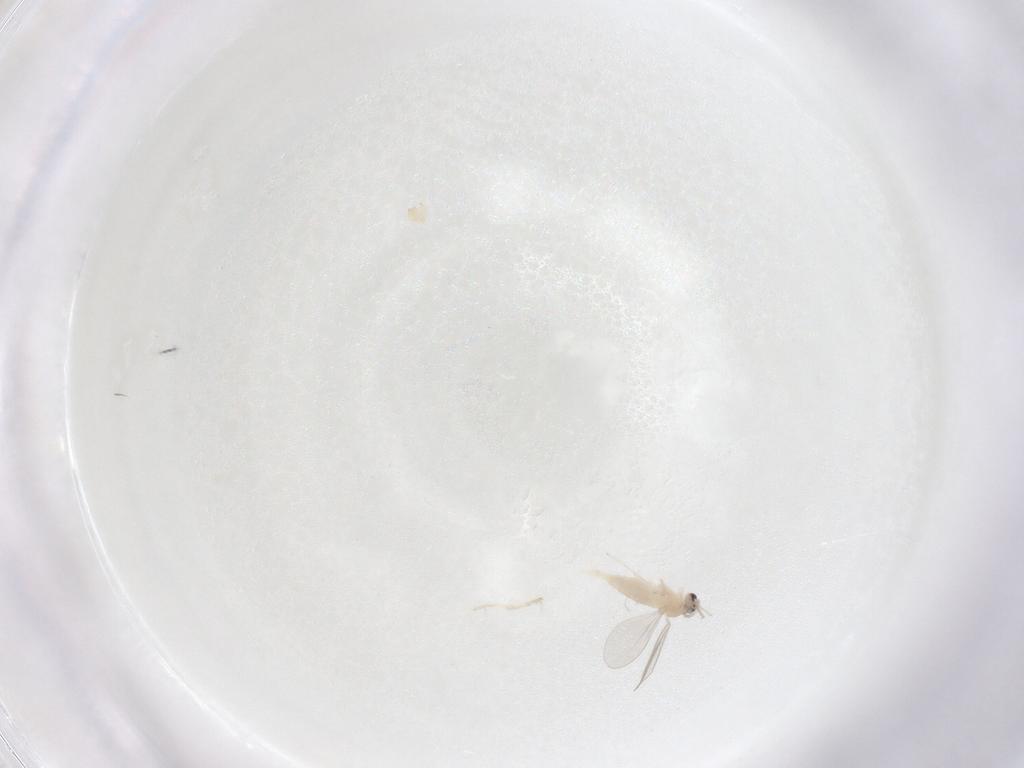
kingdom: Animalia
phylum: Arthropoda
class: Insecta
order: Diptera
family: Cecidomyiidae
